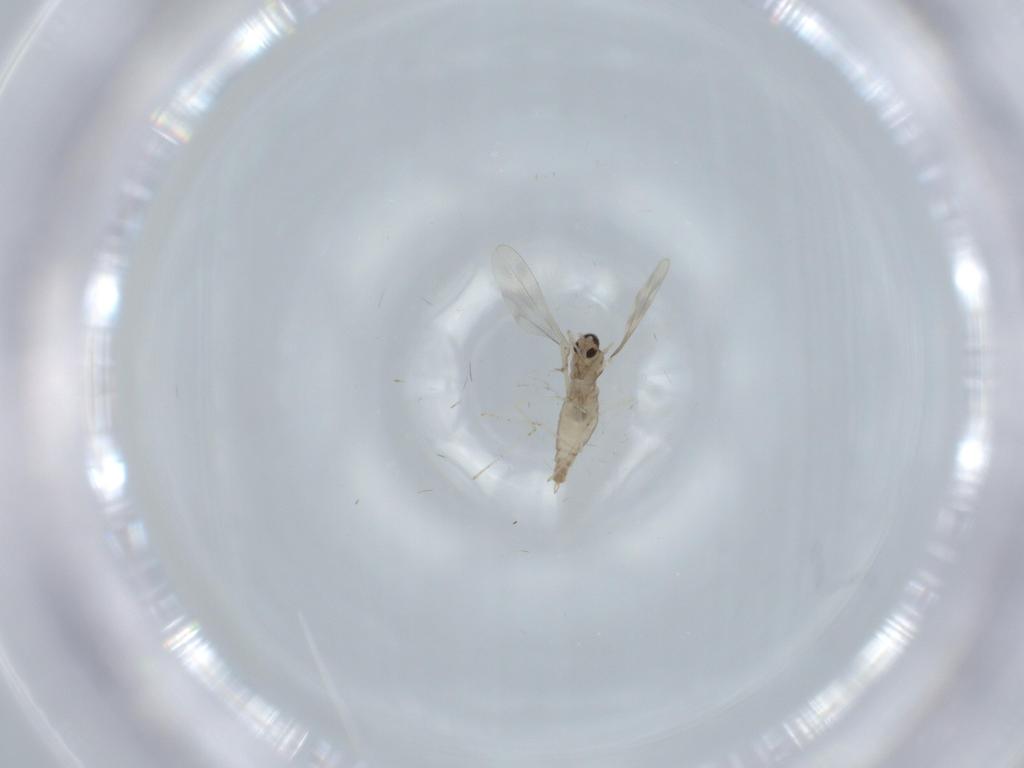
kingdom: Animalia
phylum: Arthropoda
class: Insecta
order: Diptera
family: Cecidomyiidae
